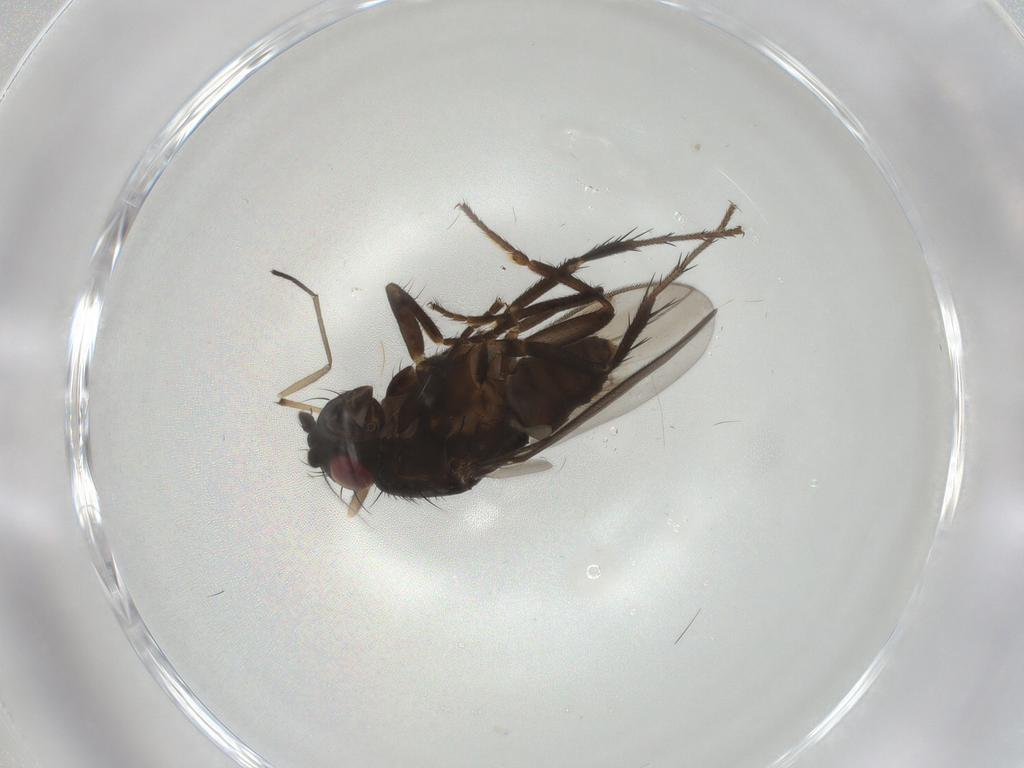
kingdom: Animalia
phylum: Arthropoda
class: Insecta
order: Diptera
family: Sphaeroceridae
